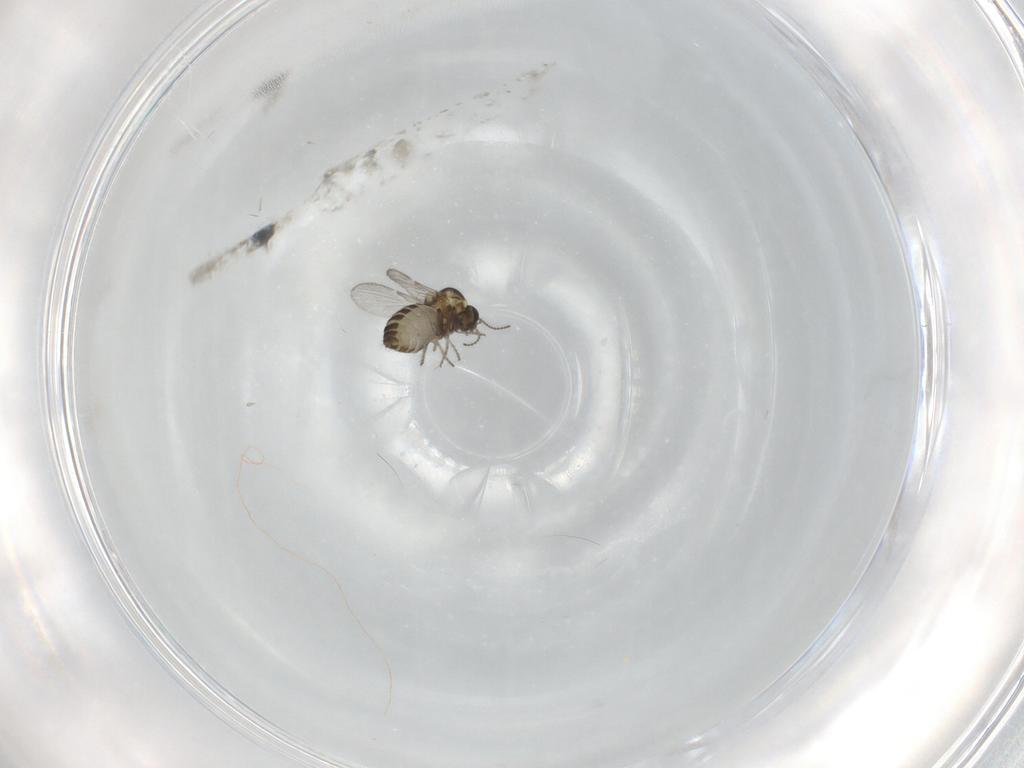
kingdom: Animalia
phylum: Arthropoda
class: Insecta
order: Diptera
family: Ceratopogonidae
